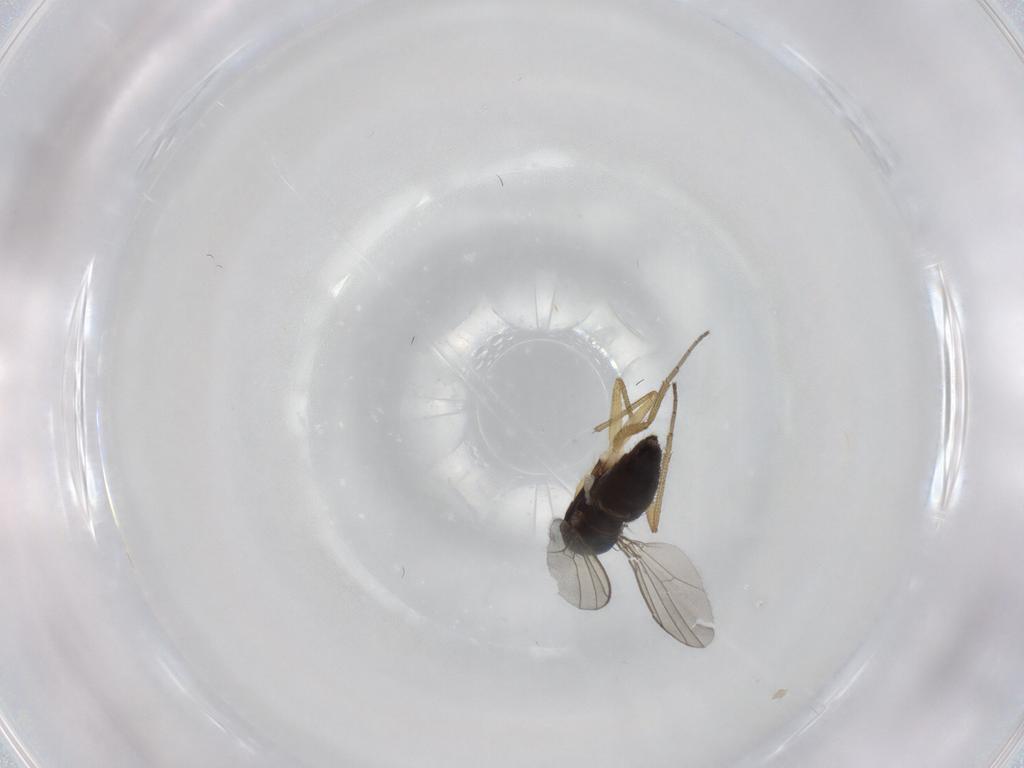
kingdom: Animalia
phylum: Arthropoda
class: Insecta
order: Diptera
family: Dolichopodidae
